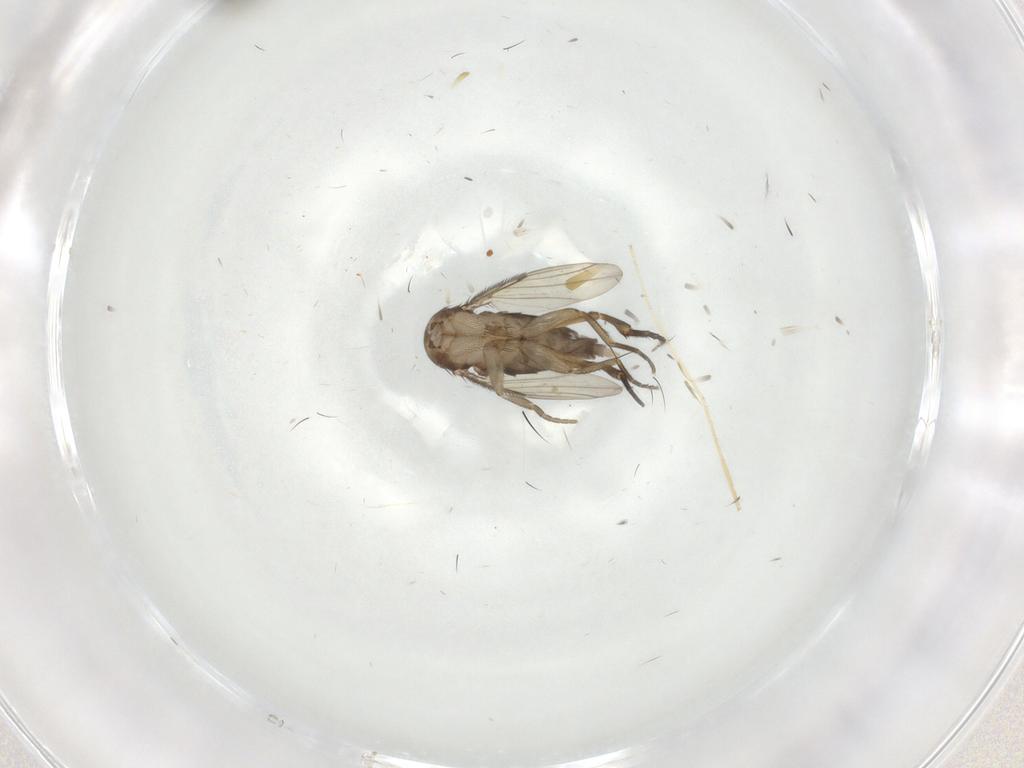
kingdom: Animalia
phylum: Arthropoda
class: Insecta
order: Diptera
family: Phoridae
